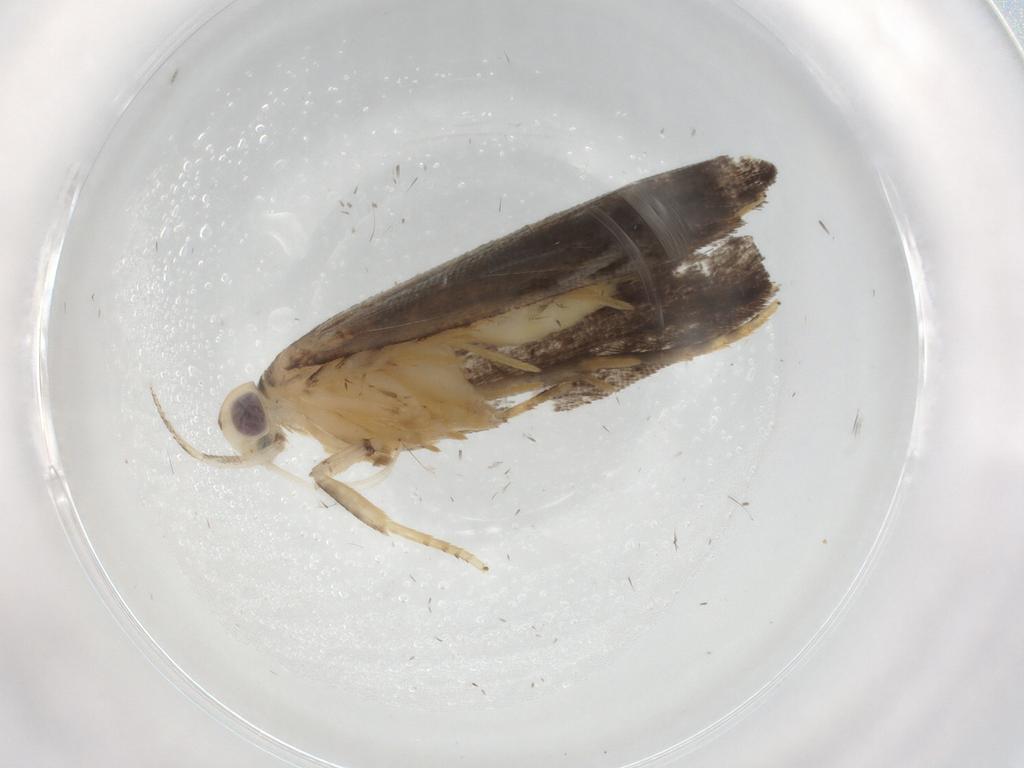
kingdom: Animalia
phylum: Arthropoda
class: Insecta
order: Lepidoptera
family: Gelechiidae
